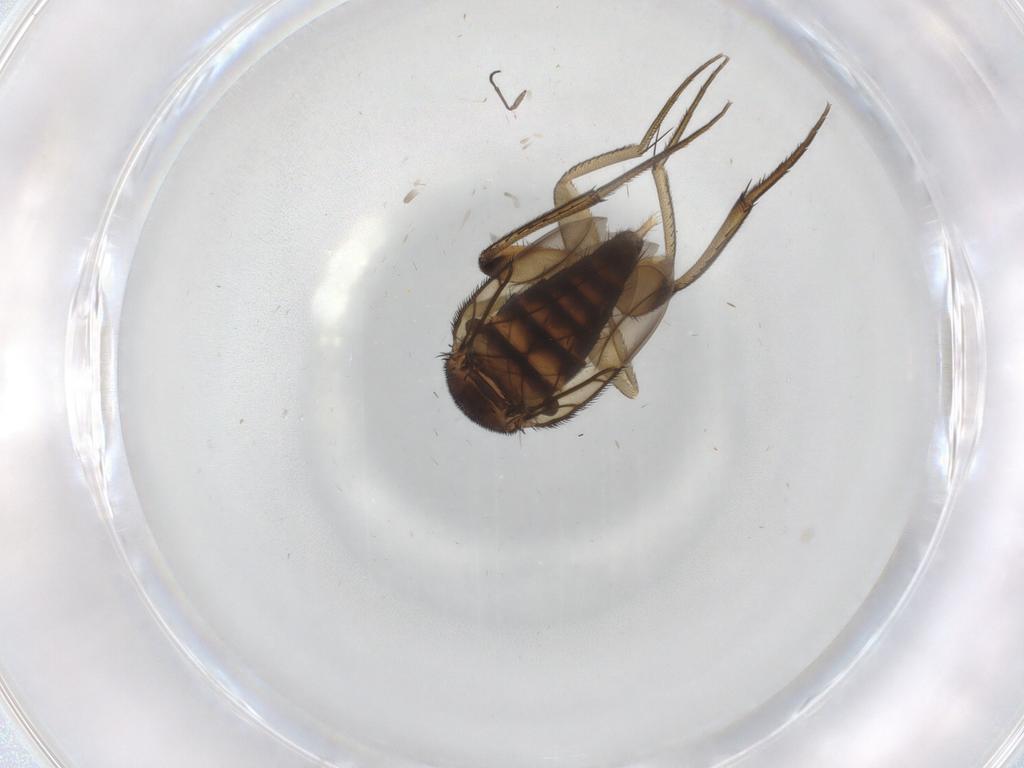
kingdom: Animalia
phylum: Arthropoda
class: Insecta
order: Diptera
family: Phoridae
